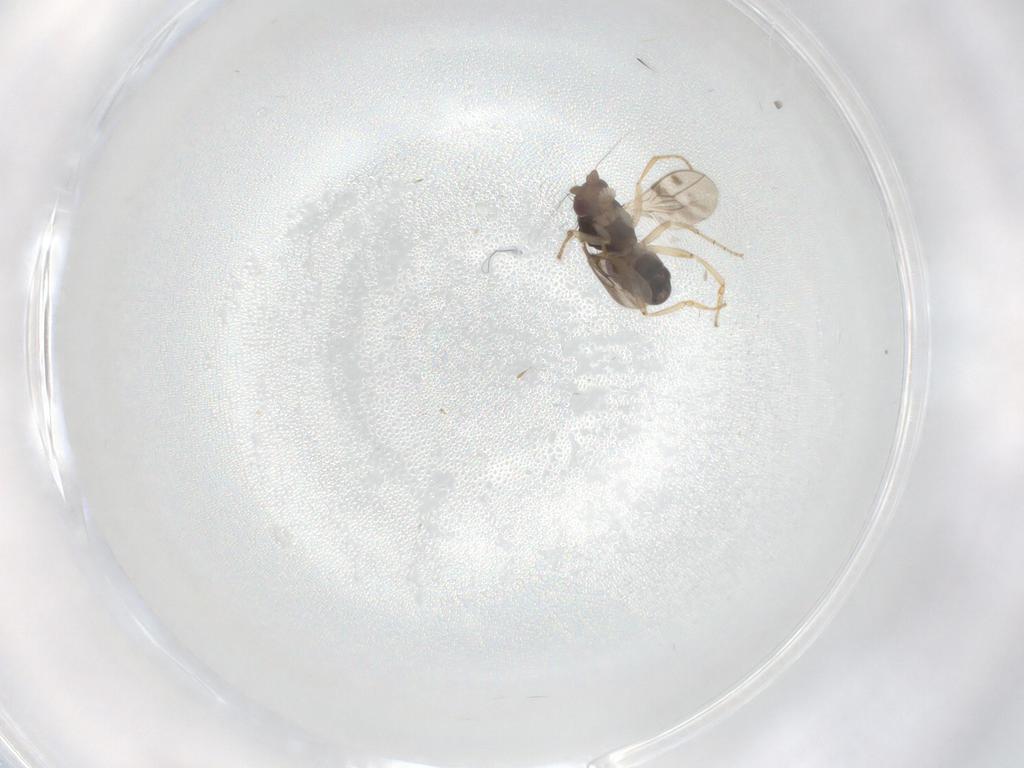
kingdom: Animalia
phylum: Arthropoda
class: Insecta
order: Diptera
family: Sphaeroceridae
